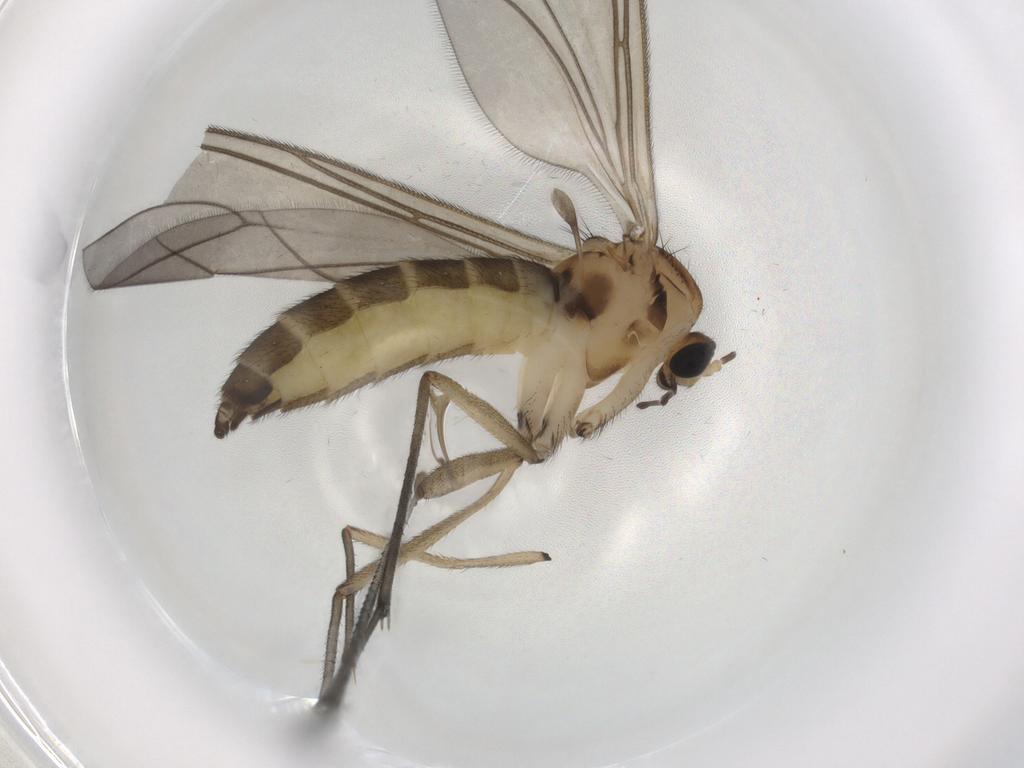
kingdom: Animalia
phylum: Arthropoda
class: Insecta
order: Diptera
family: Sciaridae
